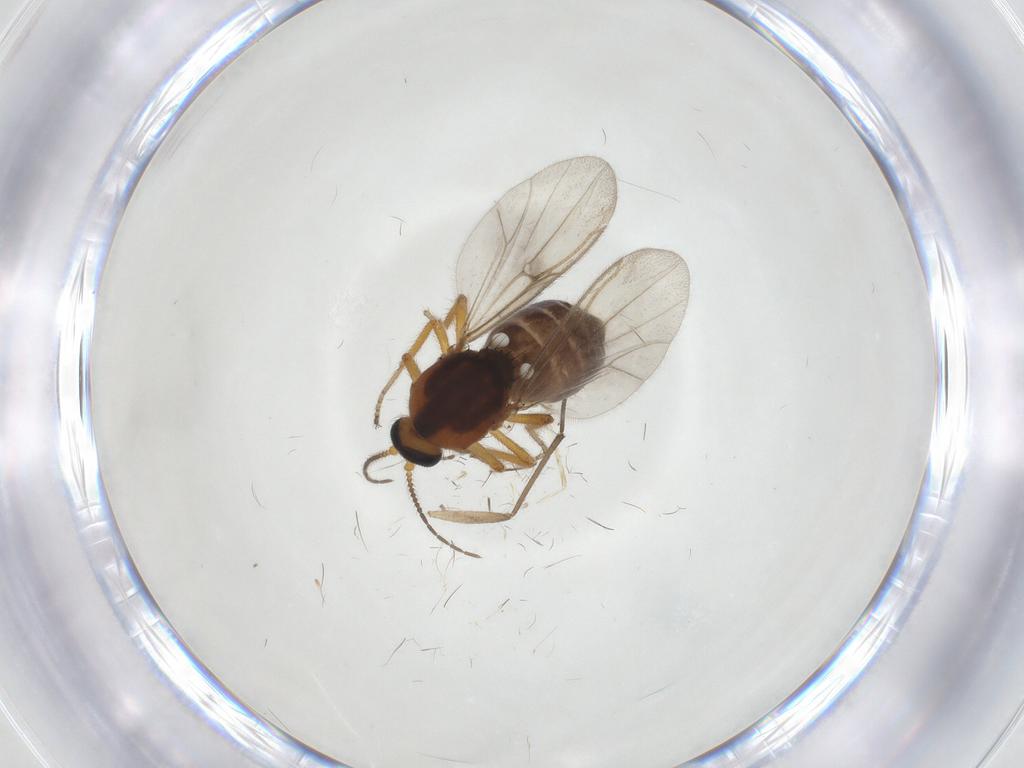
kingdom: Animalia
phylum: Arthropoda
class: Insecta
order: Diptera
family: Ceratopogonidae
